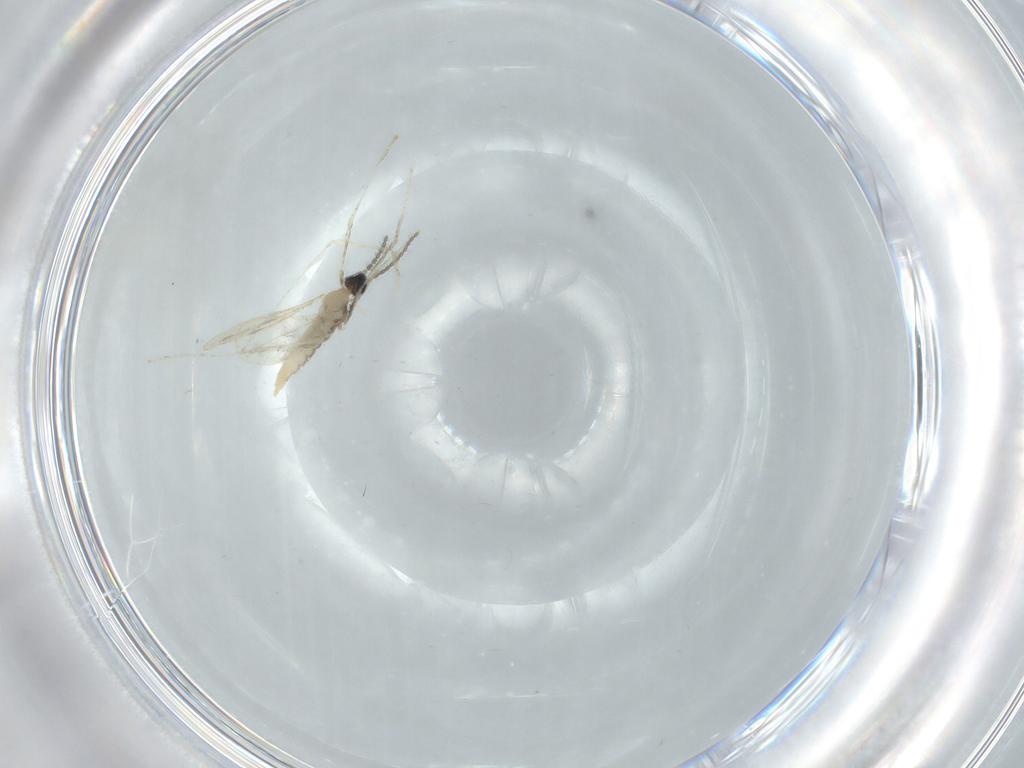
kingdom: Animalia
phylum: Arthropoda
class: Insecta
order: Diptera
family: Cecidomyiidae
